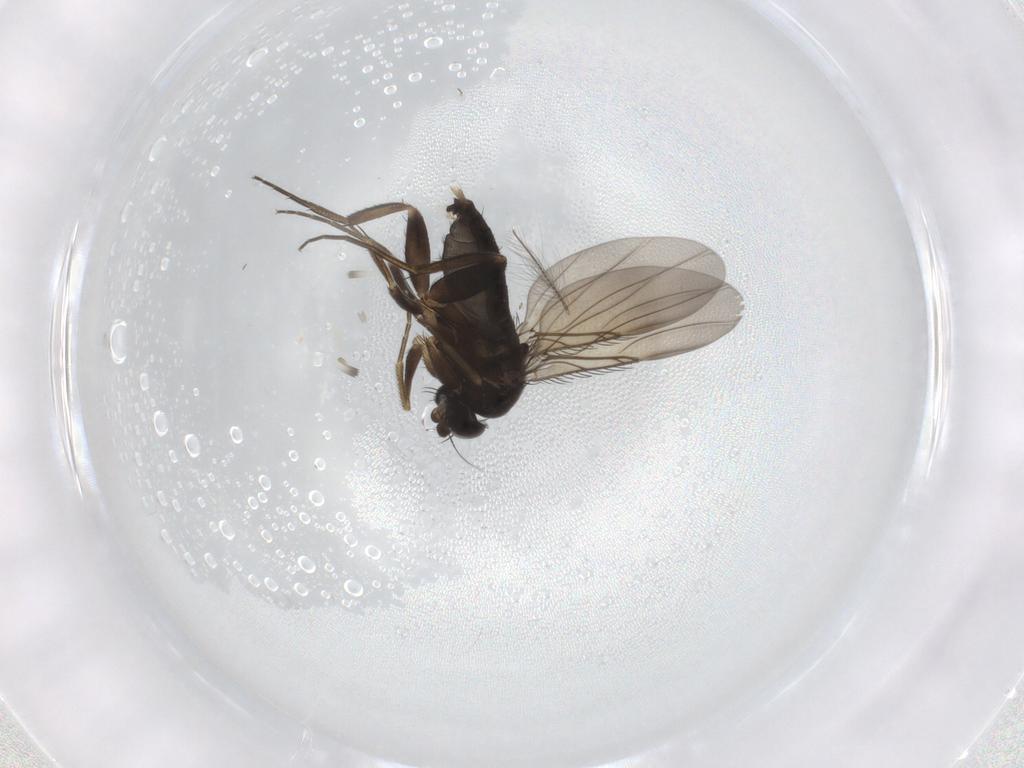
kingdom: Animalia
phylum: Arthropoda
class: Insecta
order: Diptera
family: Phoridae
